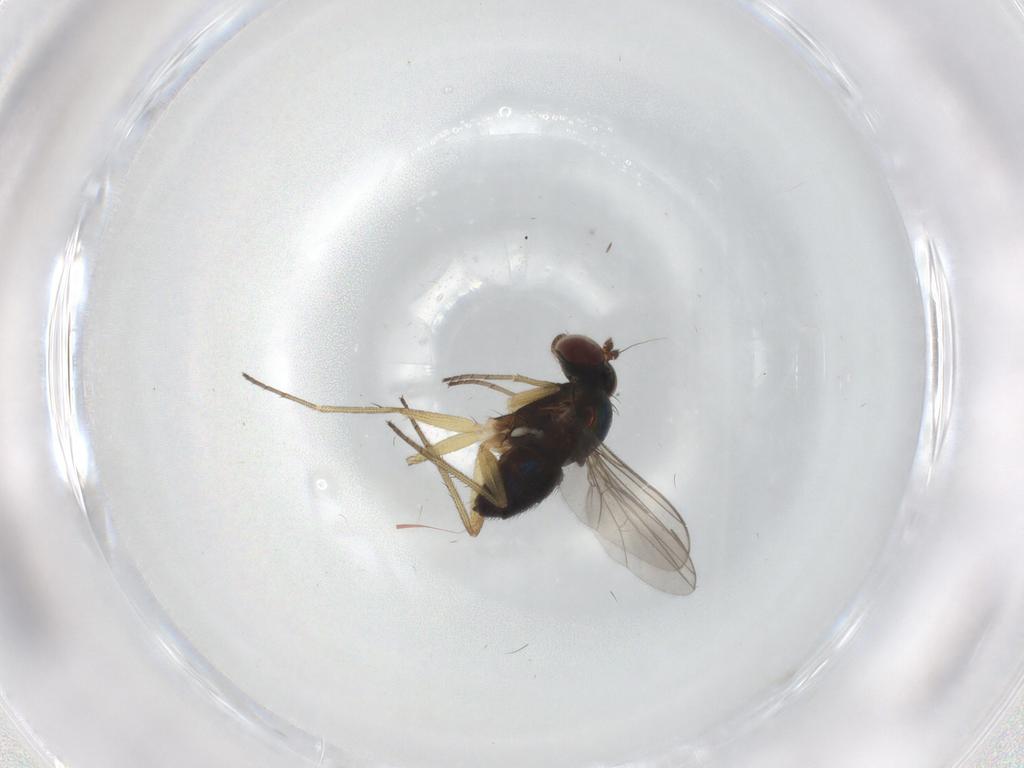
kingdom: Animalia
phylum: Arthropoda
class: Insecta
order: Diptera
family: Dolichopodidae
